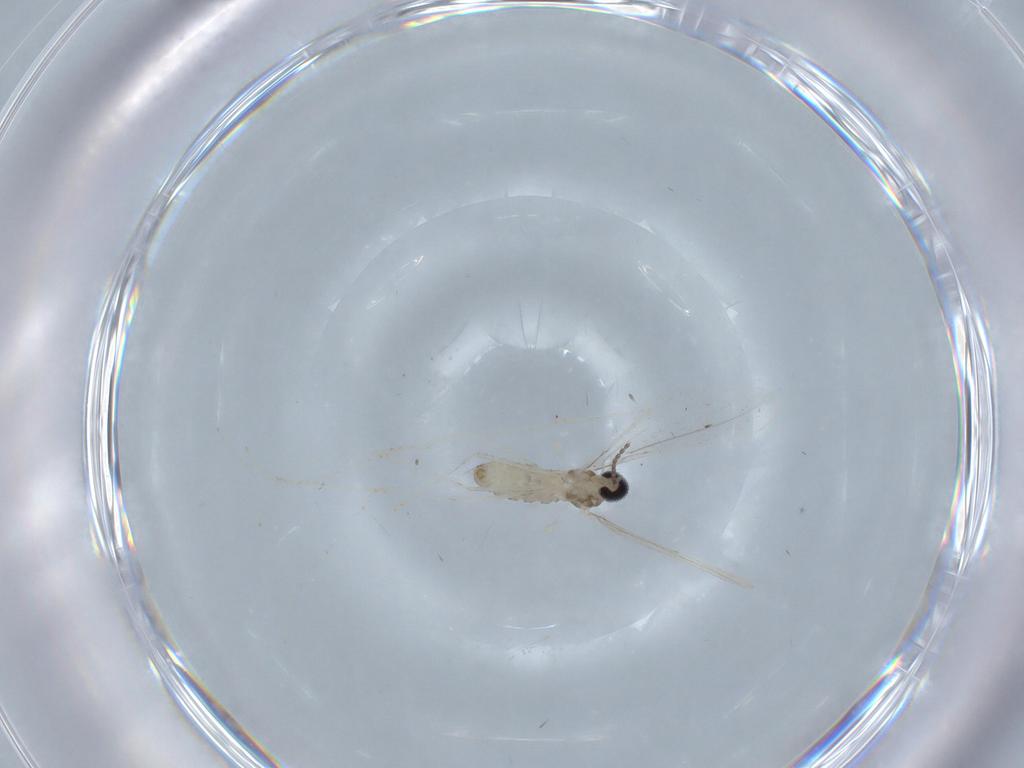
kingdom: Animalia
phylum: Arthropoda
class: Insecta
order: Diptera
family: Cecidomyiidae
